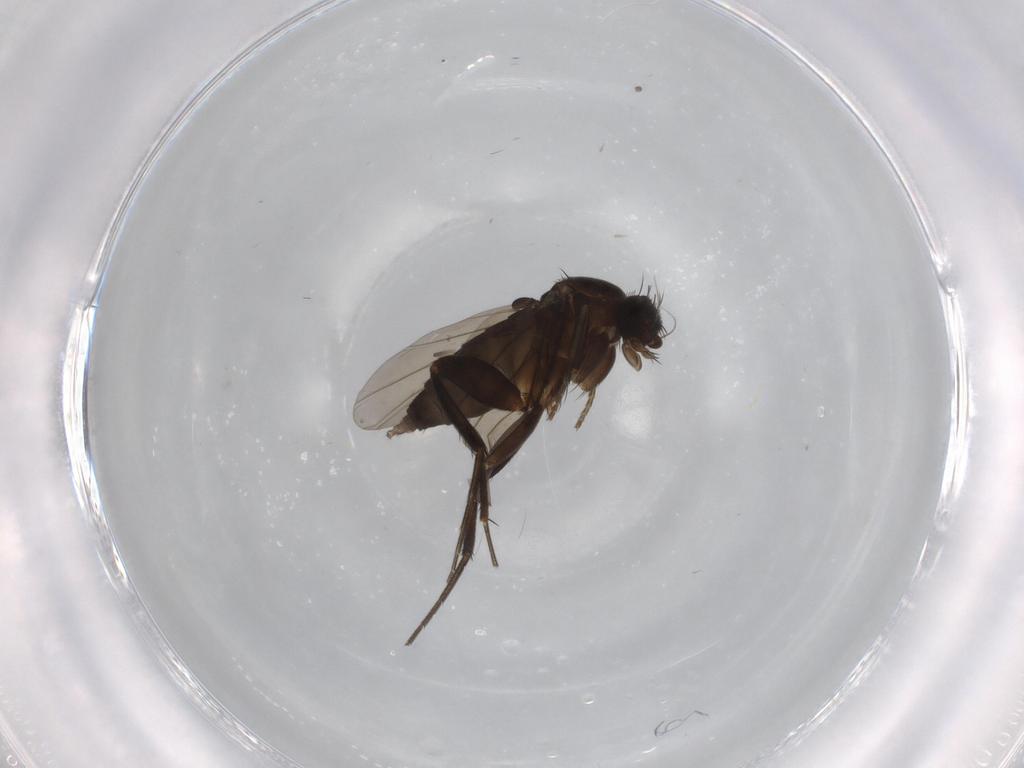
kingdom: Animalia
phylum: Arthropoda
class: Insecta
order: Diptera
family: Phoridae
